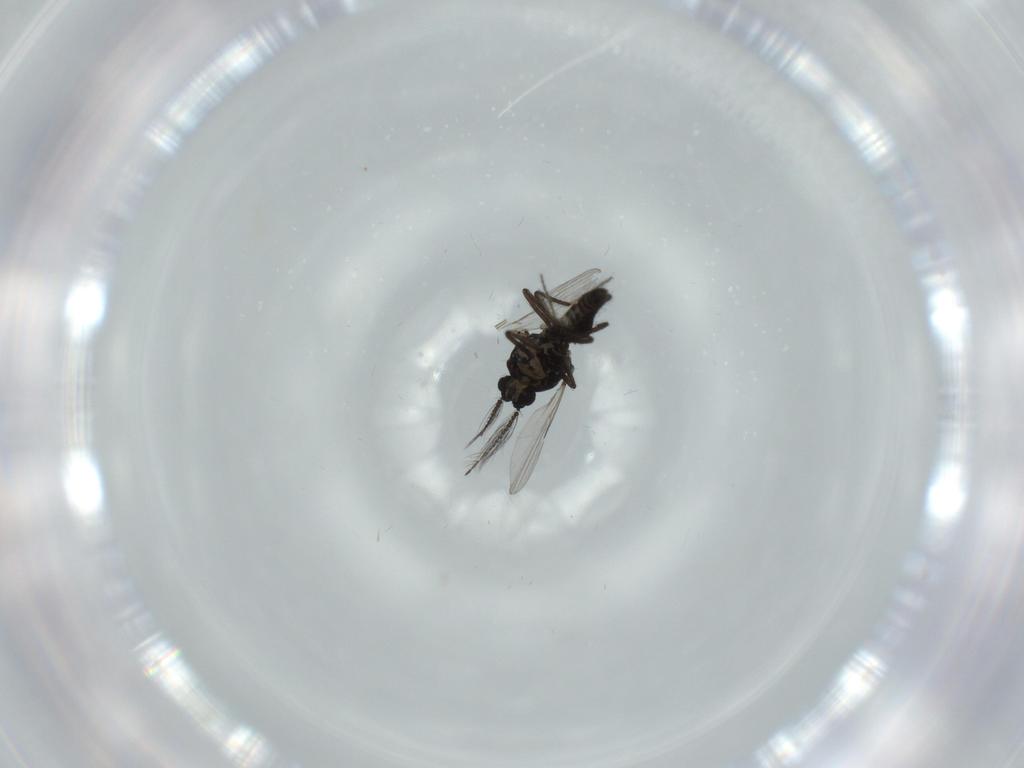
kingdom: Animalia
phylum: Arthropoda
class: Insecta
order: Diptera
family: Ceratopogonidae
